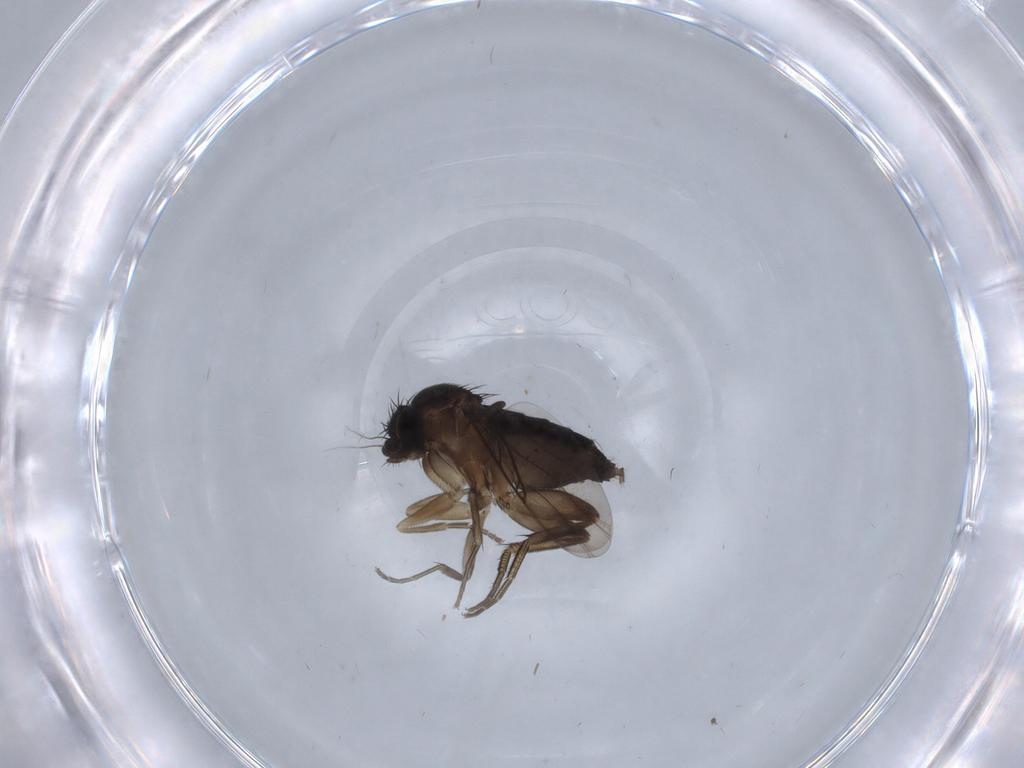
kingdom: Animalia
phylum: Arthropoda
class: Insecta
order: Diptera
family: Phoridae
